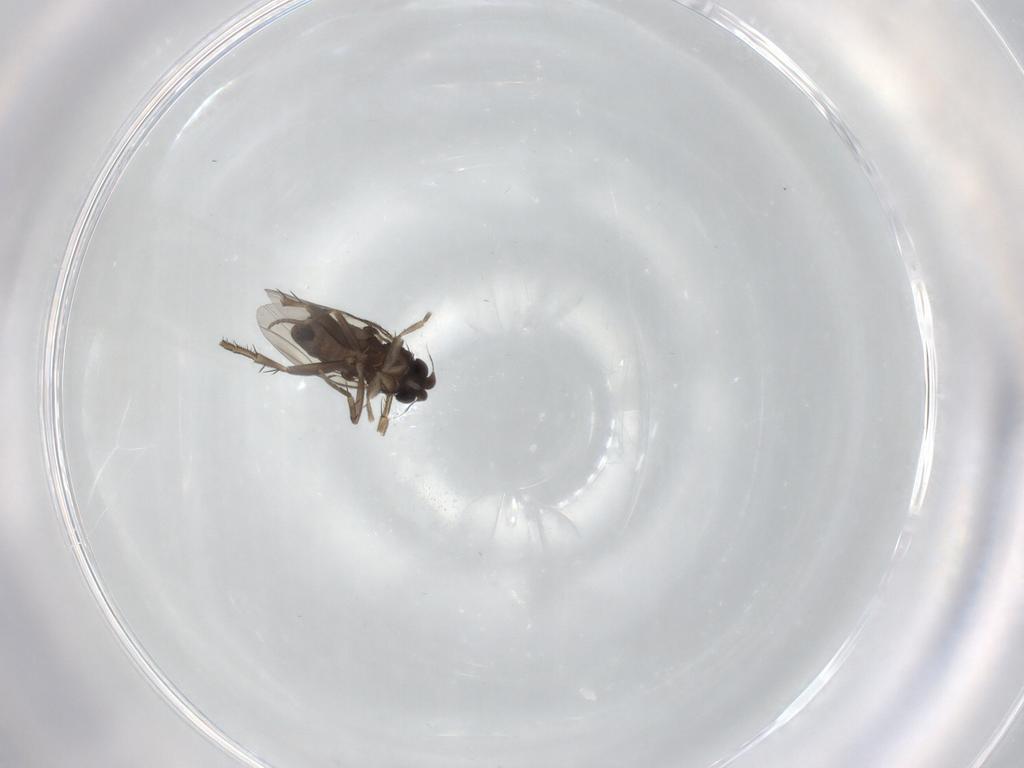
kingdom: Animalia
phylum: Arthropoda
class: Insecta
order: Diptera
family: Phoridae
